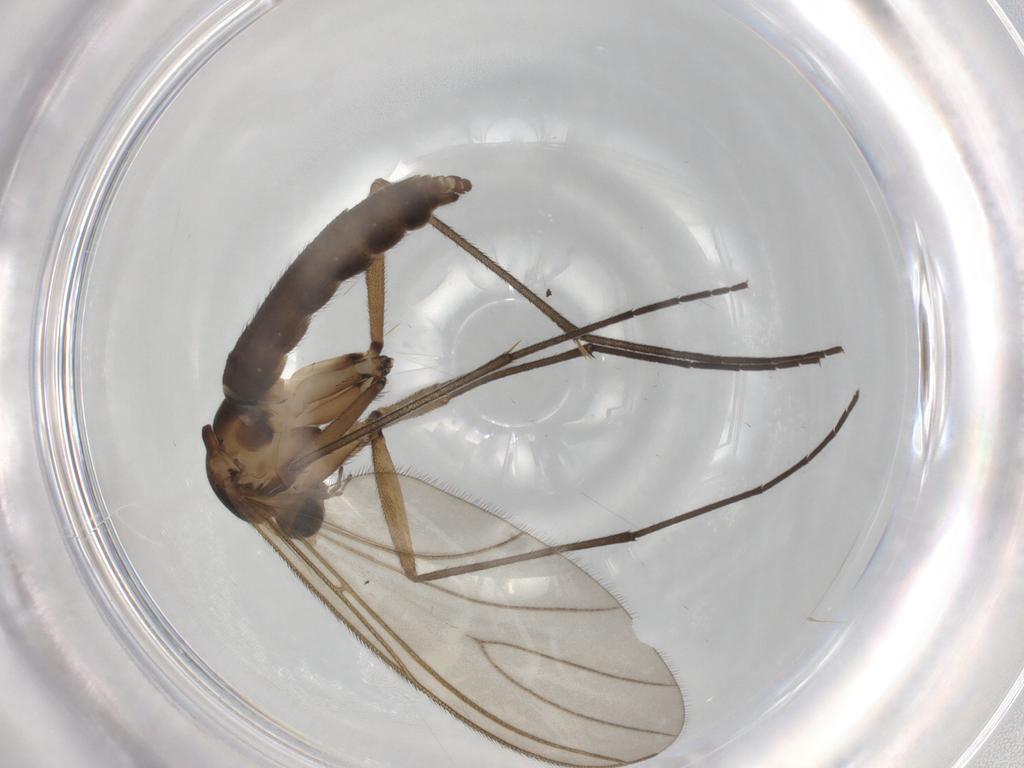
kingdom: Animalia
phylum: Arthropoda
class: Insecta
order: Diptera
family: Sciaridae
